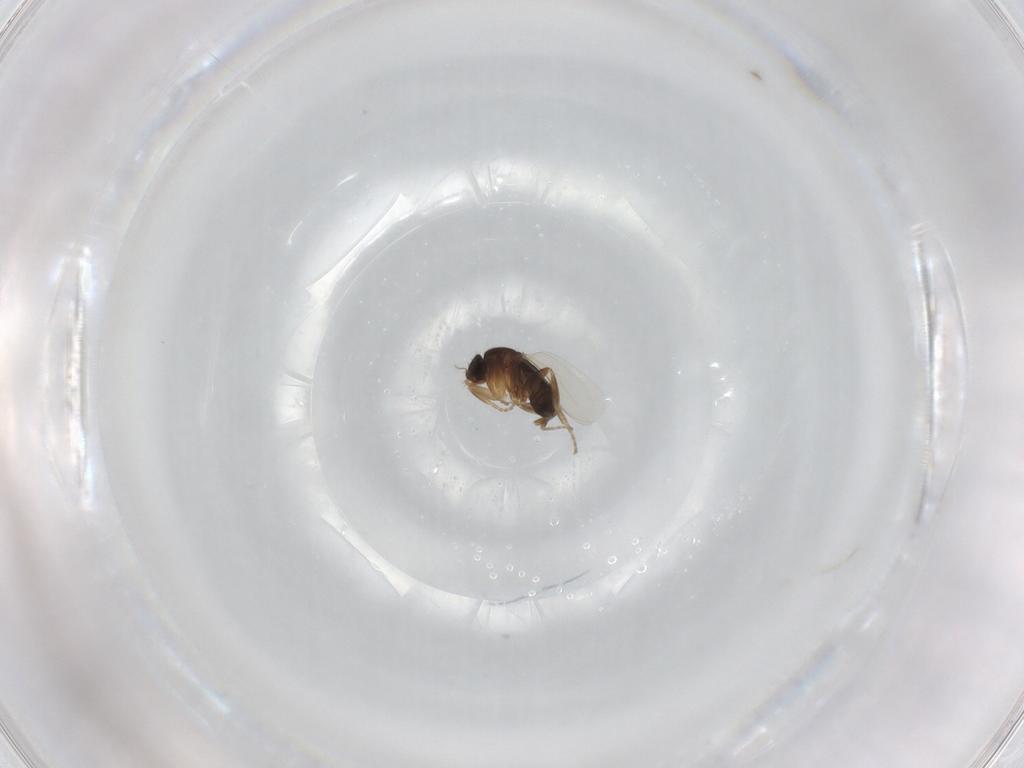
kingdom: Animalia
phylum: Arthropoda
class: Insecta
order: Diptera
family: Phoridae
